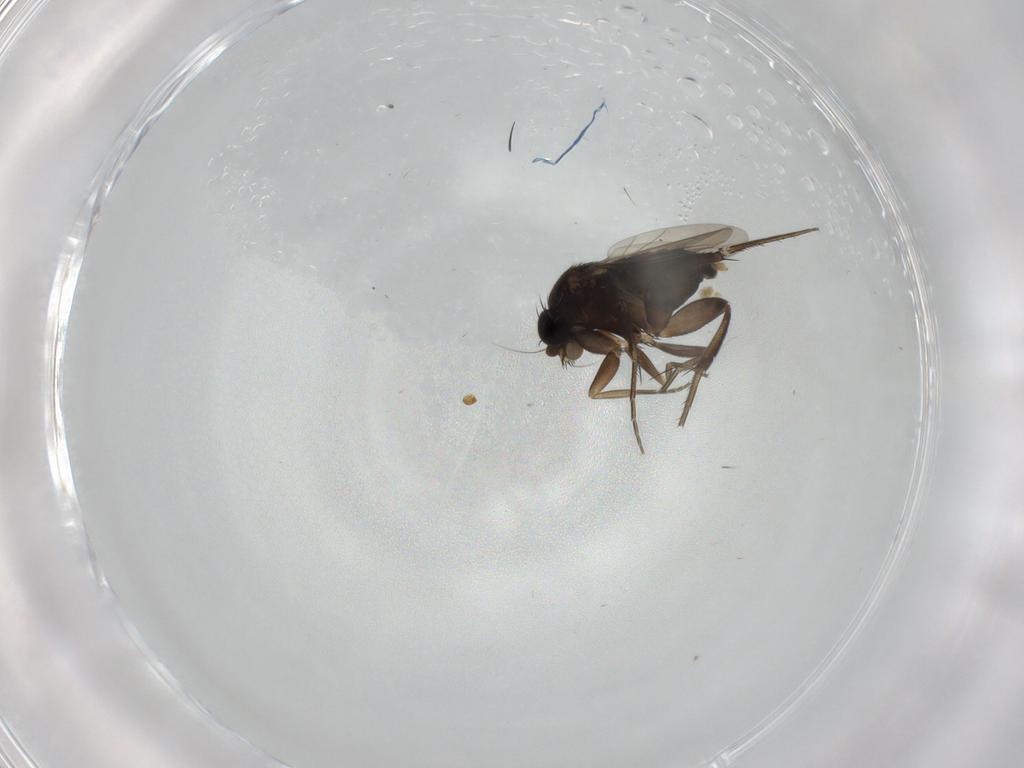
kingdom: Animalia
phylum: Arthropoda
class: Insecta
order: Diptera
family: Phoridae
